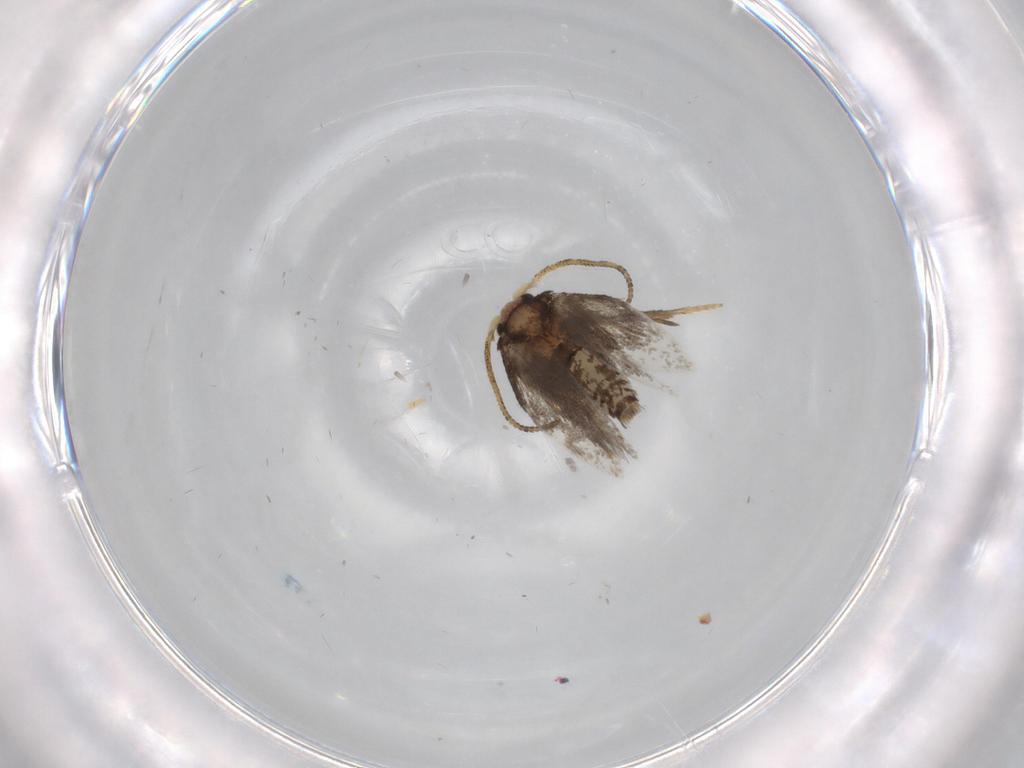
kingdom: Animalia
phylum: Arthropoda
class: Insecta
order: Lepidoptera
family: Nepticulidae
